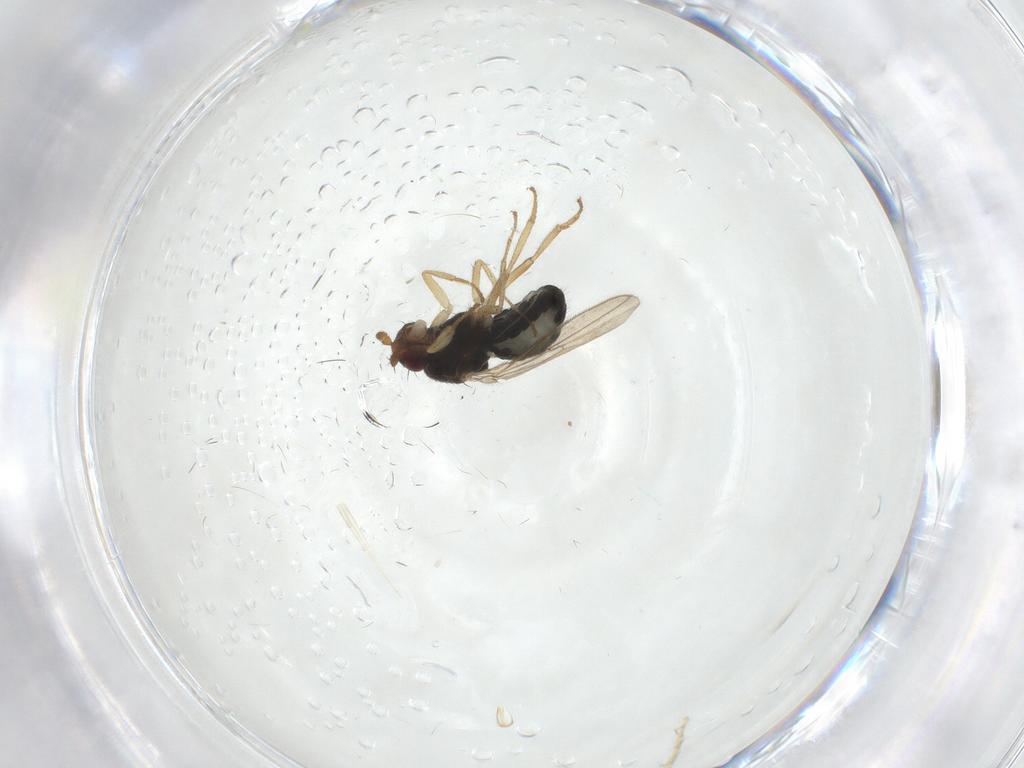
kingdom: Animalia
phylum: Arthropoda
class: Insecta
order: Diptera
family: Sphaeroceridae
